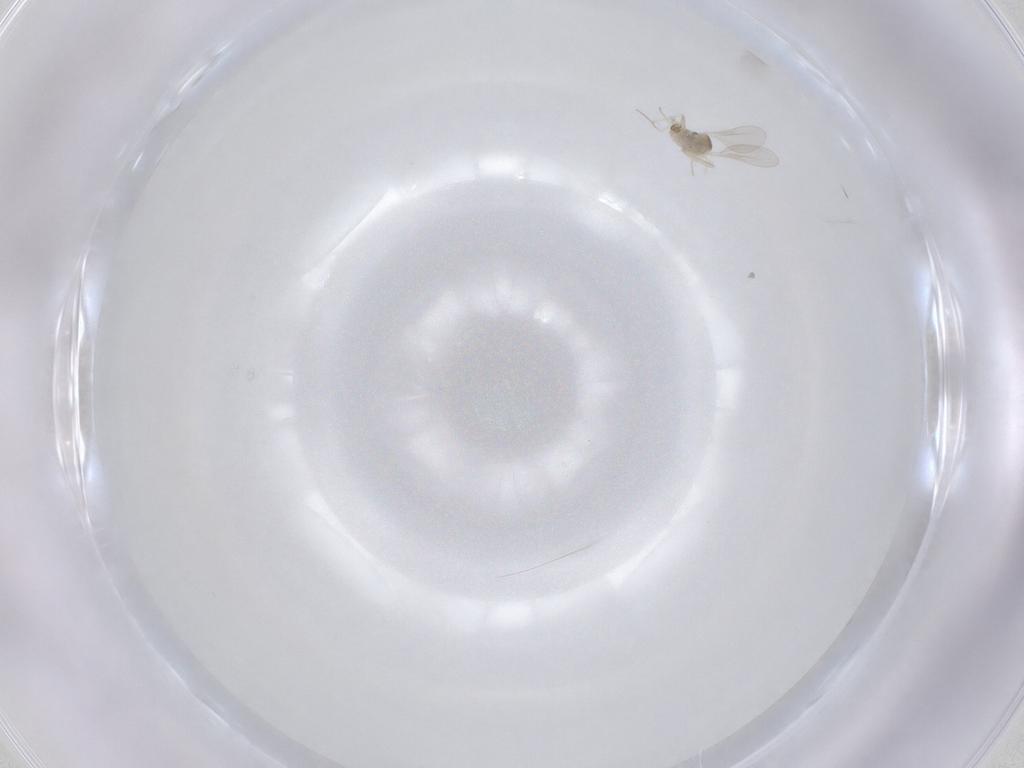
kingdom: Animalia
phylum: Arthropoda
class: Insecta
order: Diptera
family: Cecidomyiidae
